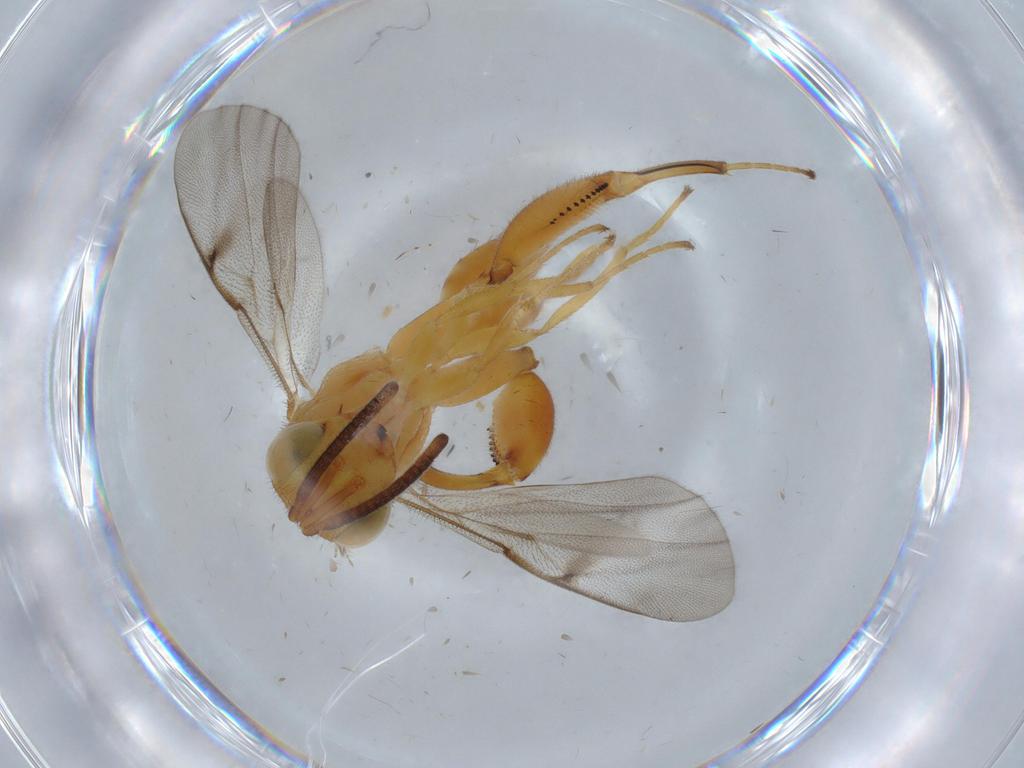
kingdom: Animalia
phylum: Arthropoda
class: Insecta
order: Hymenoptera
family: Chalcididae
